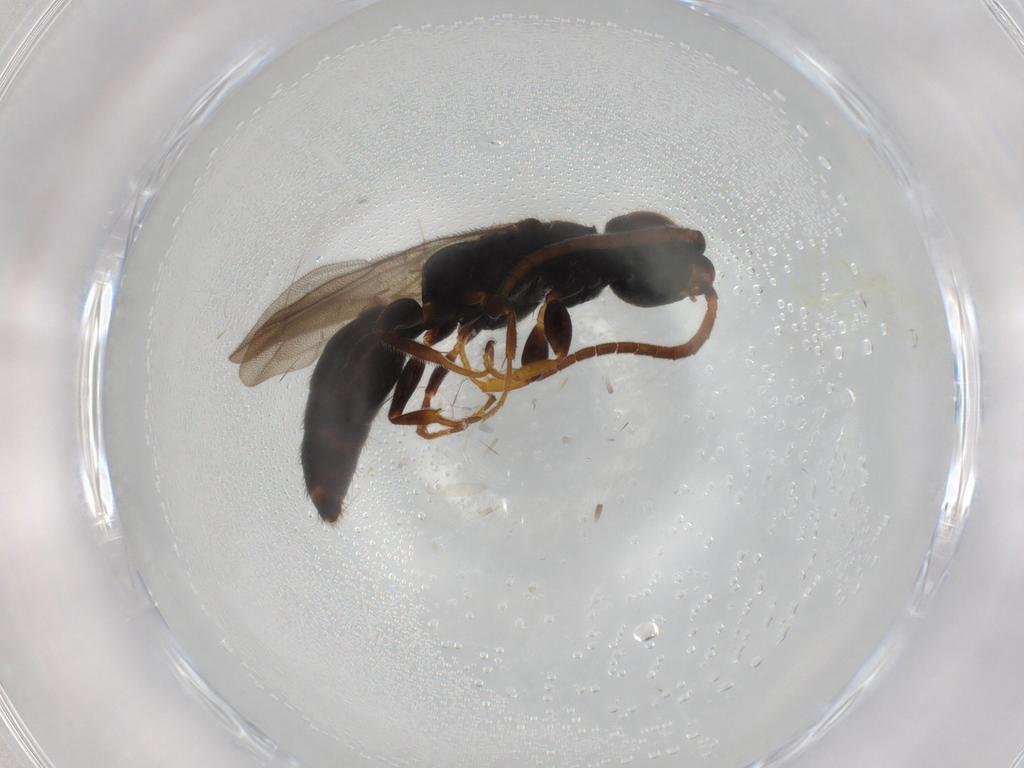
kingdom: Animalia
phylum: Arthropoda
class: Insecta
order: Hymenoptera
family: Bethylidae
